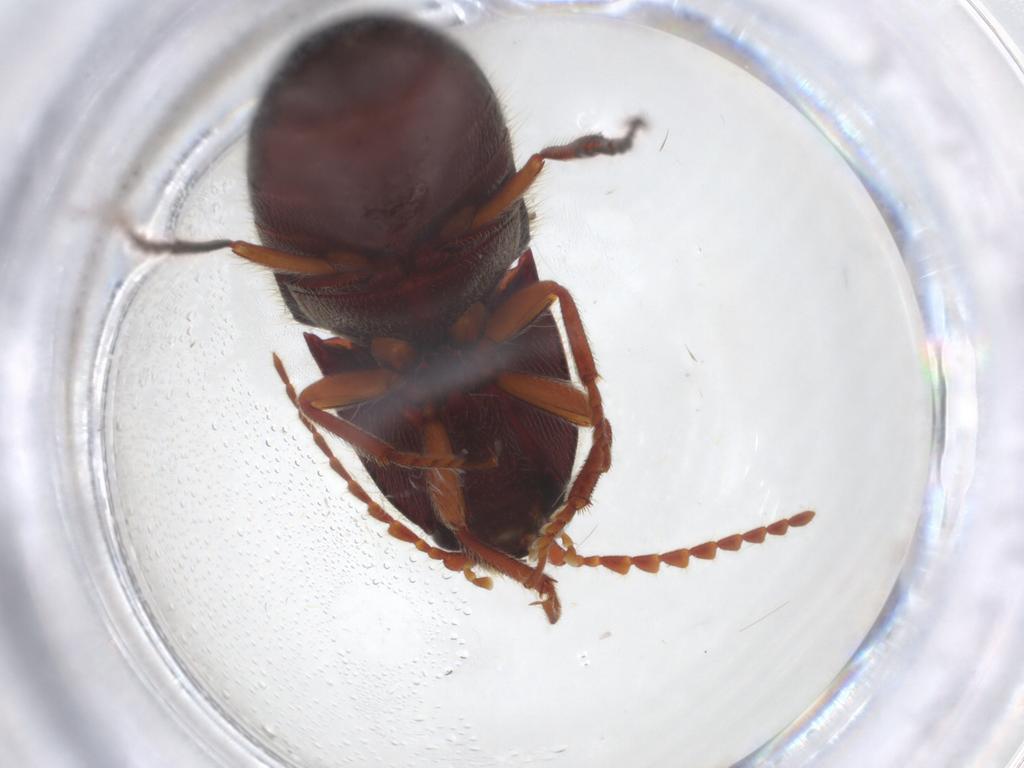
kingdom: Animalia
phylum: Arthropoda
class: Insecta
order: Coleoptera
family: Elateridae
